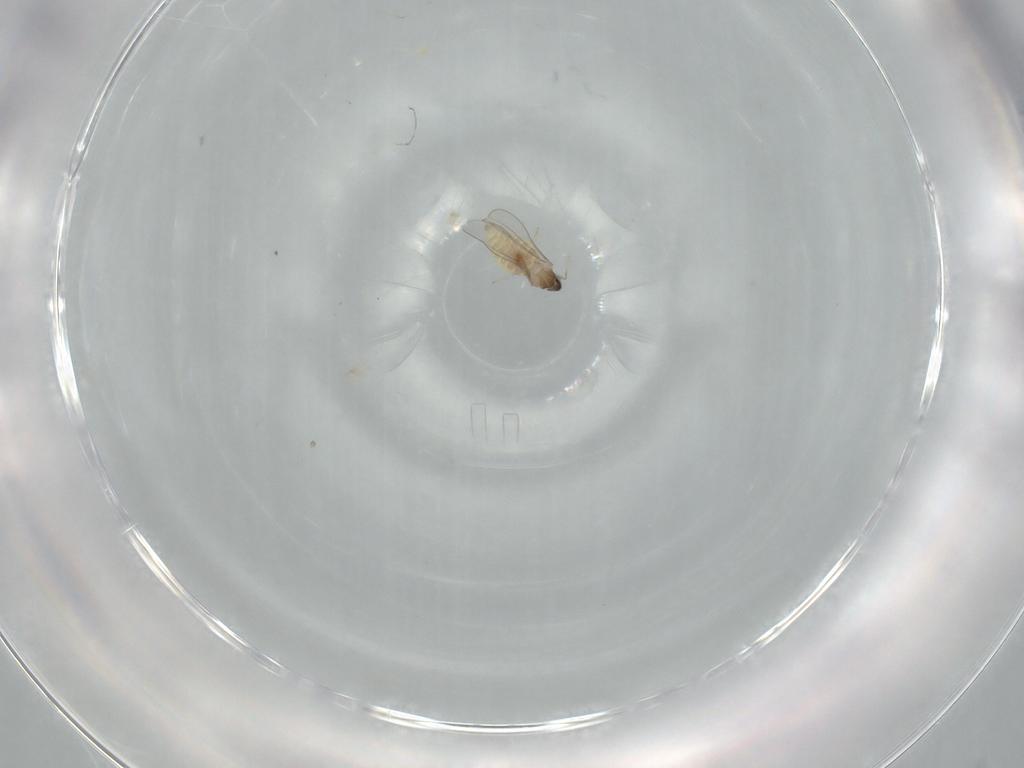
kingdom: Animalia
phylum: Arthropoda
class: Insecta
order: Diptera
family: Cecidomyiidae
